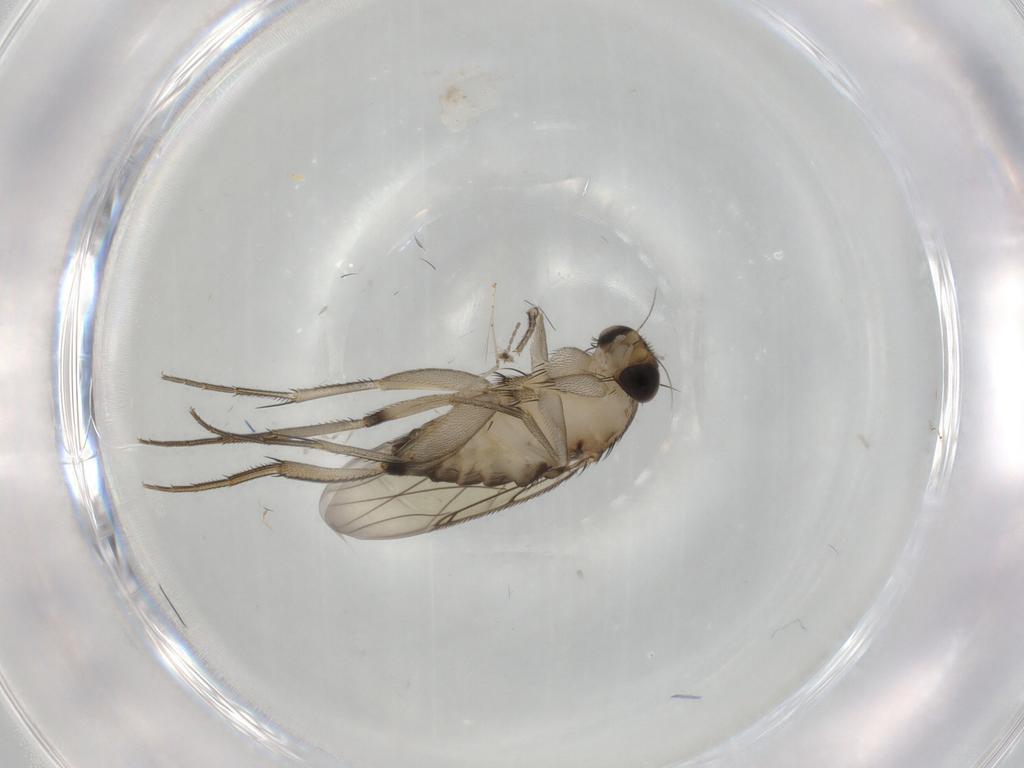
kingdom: Animalia
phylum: Arthropoda
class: Insecta
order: Diptera
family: Phoridae
